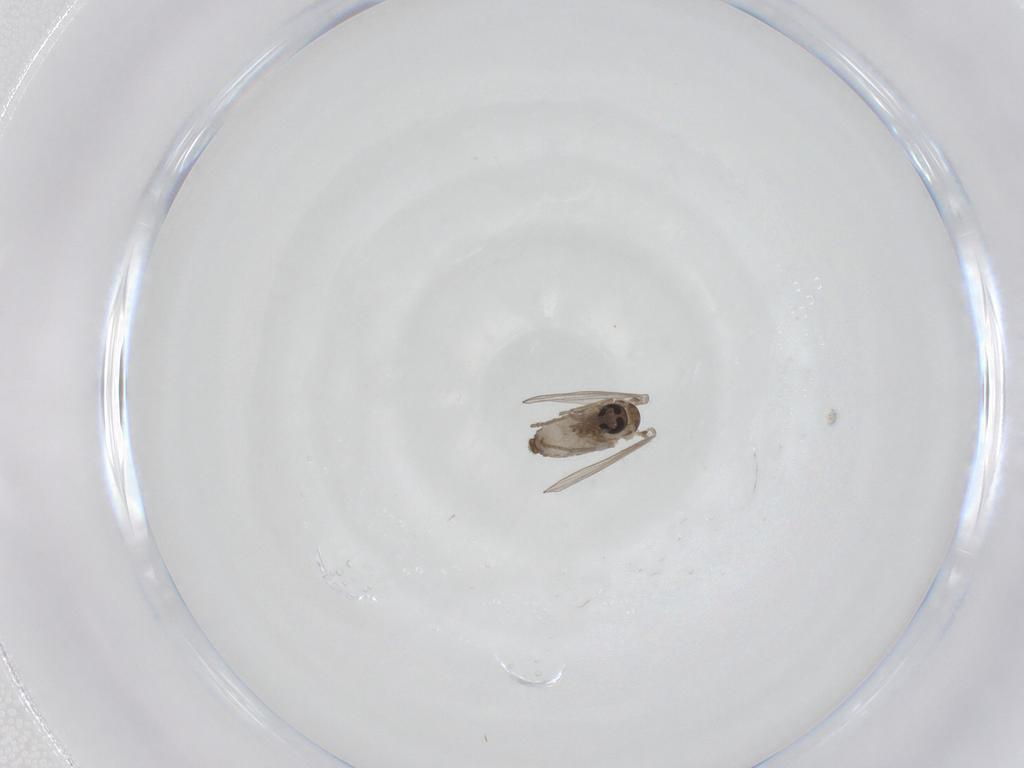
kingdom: Animalia
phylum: Arthropoda
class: Insecta
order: Diptera
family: Psychodidae
